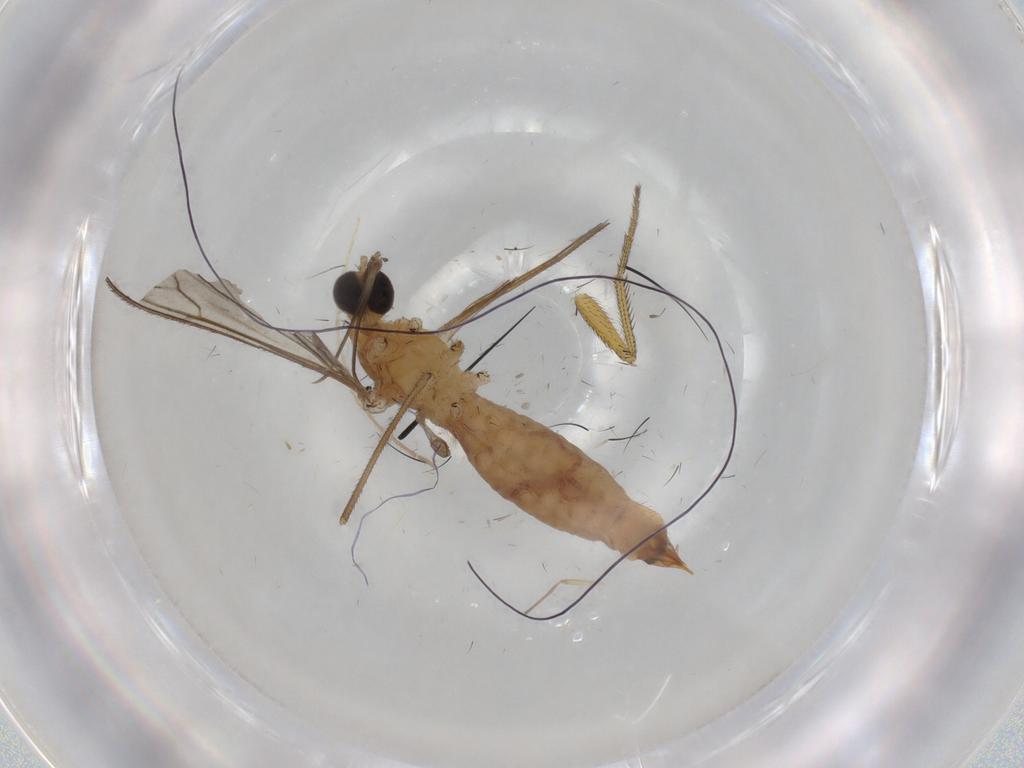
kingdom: Animalia
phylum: Arthropoda
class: Insecta
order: Diptera
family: Limoniidae
